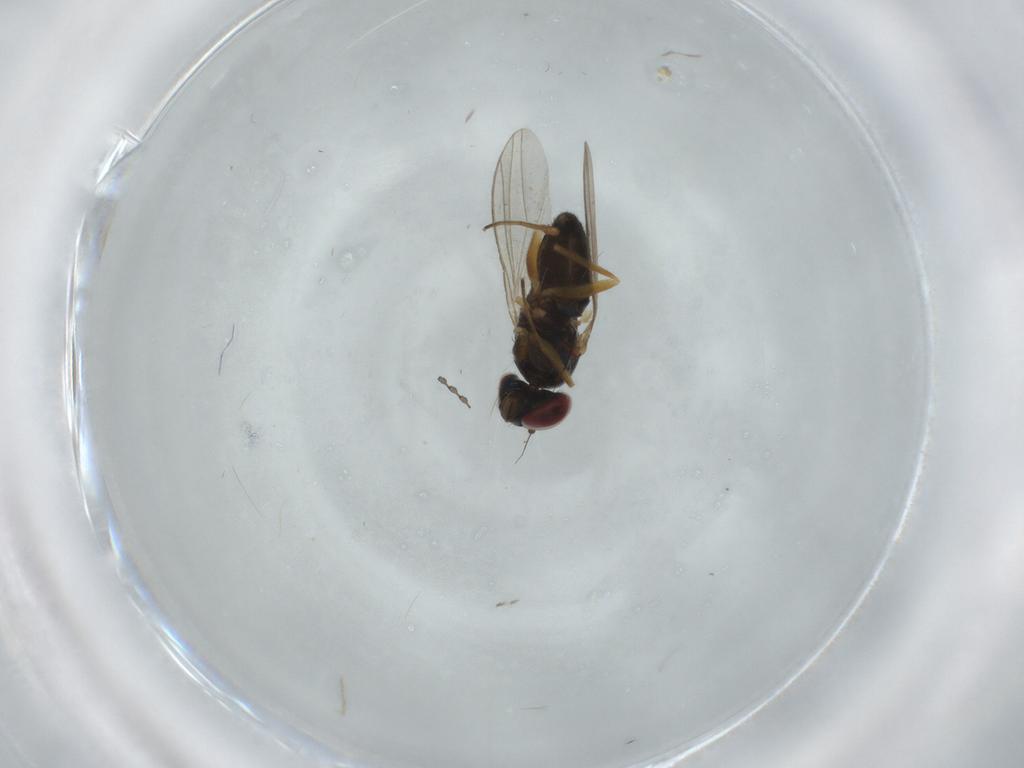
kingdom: Animalia
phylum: Arthropoda
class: Insecta
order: Diptera
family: Dolichopodidae
